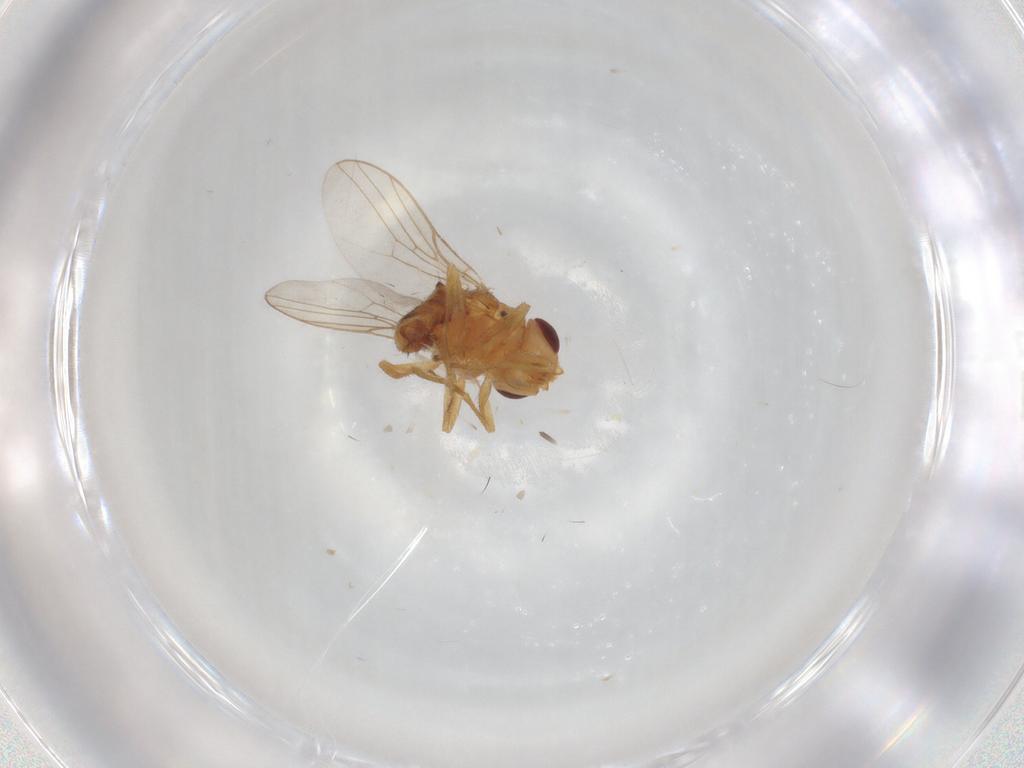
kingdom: Animalia
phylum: Arthropoda
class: Insecta
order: Diptera
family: Chloropidae
